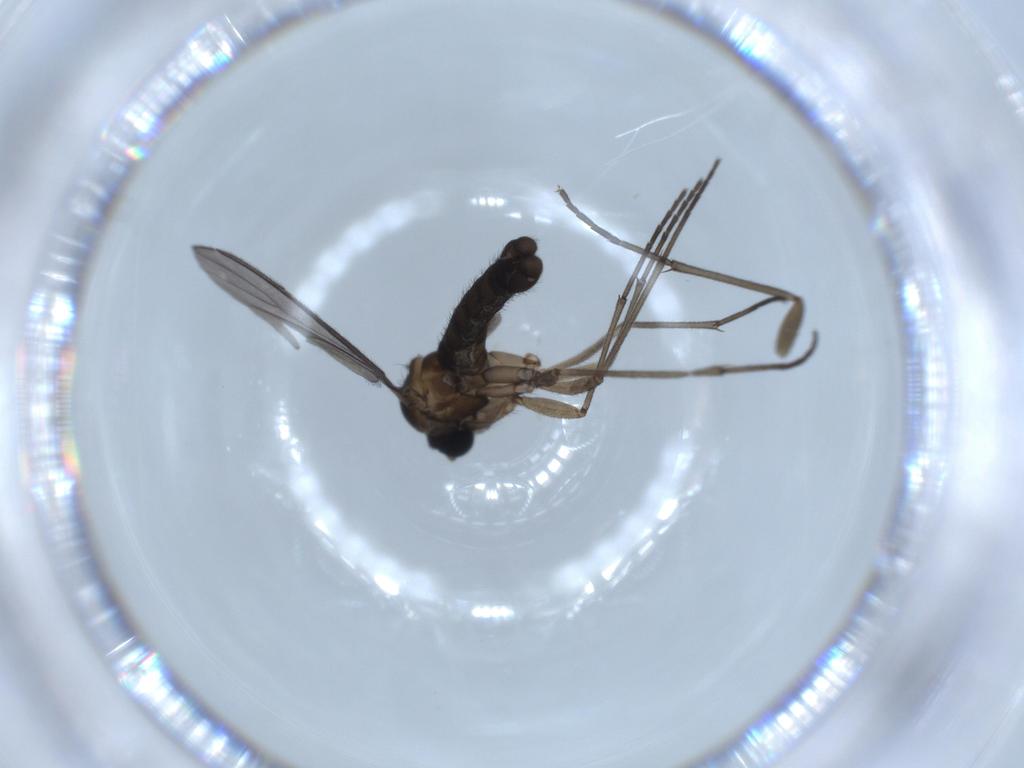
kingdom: Animalia
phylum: Arthropoda
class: Insecta
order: Diptera
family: Sciaridae
